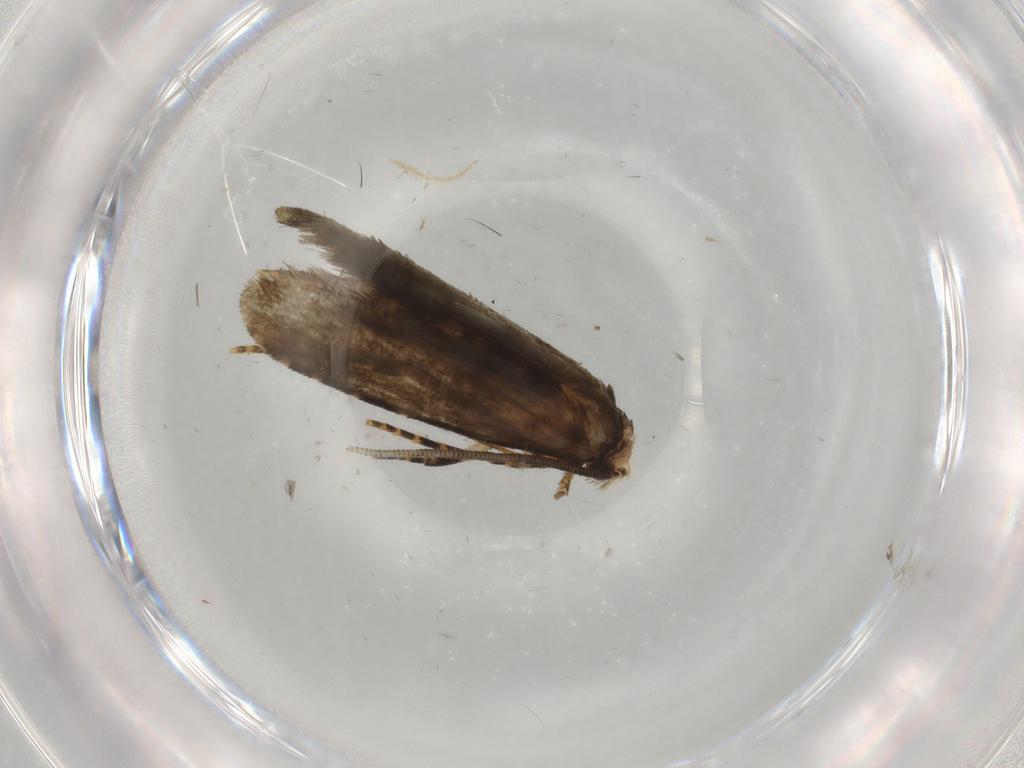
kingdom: Animalia
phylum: Arthropoda
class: Insecta
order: Lepidoptera
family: Tineidae
